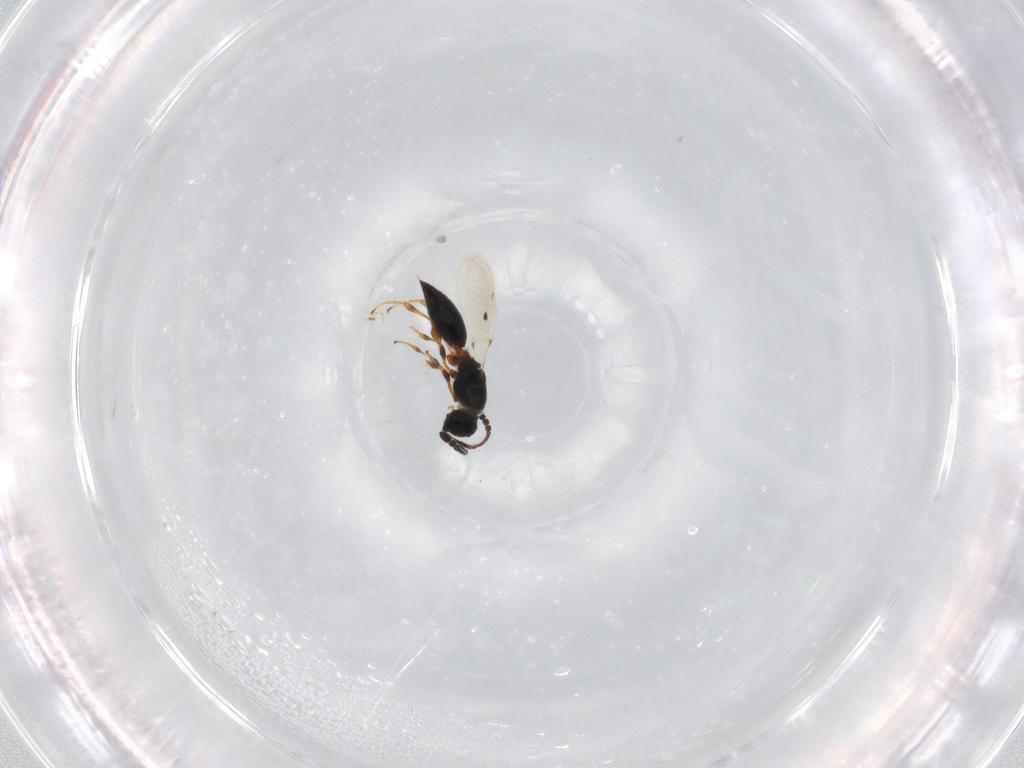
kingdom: Animalia
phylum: Arthropoda
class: Insecta
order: Hymenoptera
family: Diapriidae
